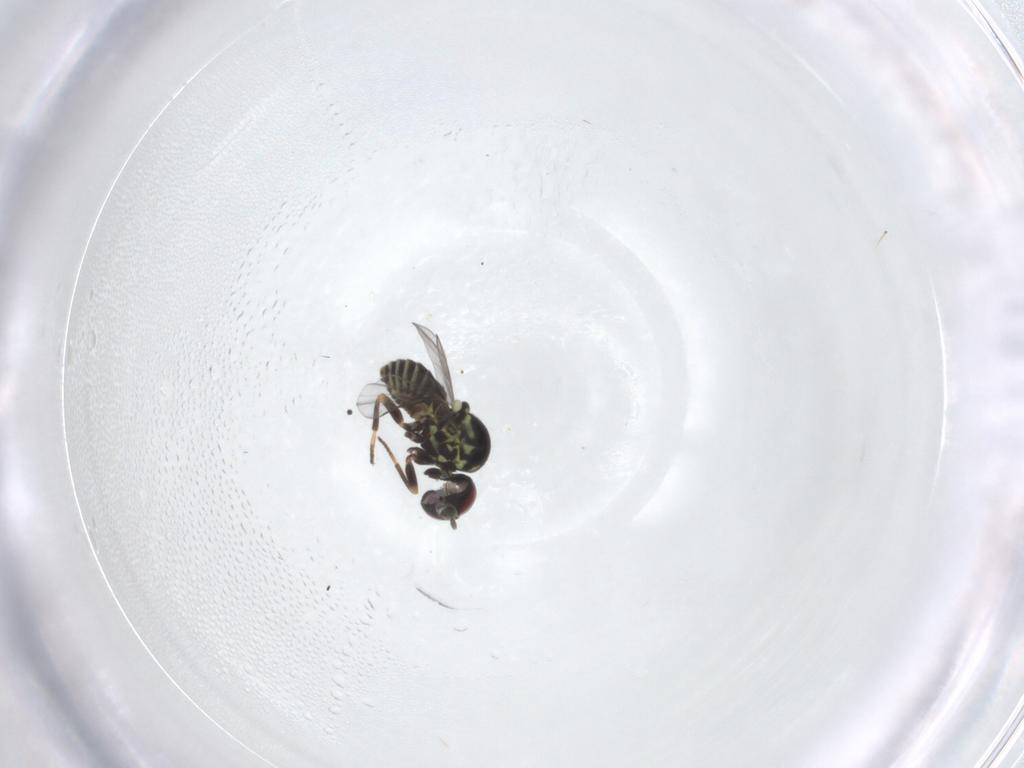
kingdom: Animalia
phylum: Arthropoda
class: Insecta
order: Diptera
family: Mythicomyiidae
